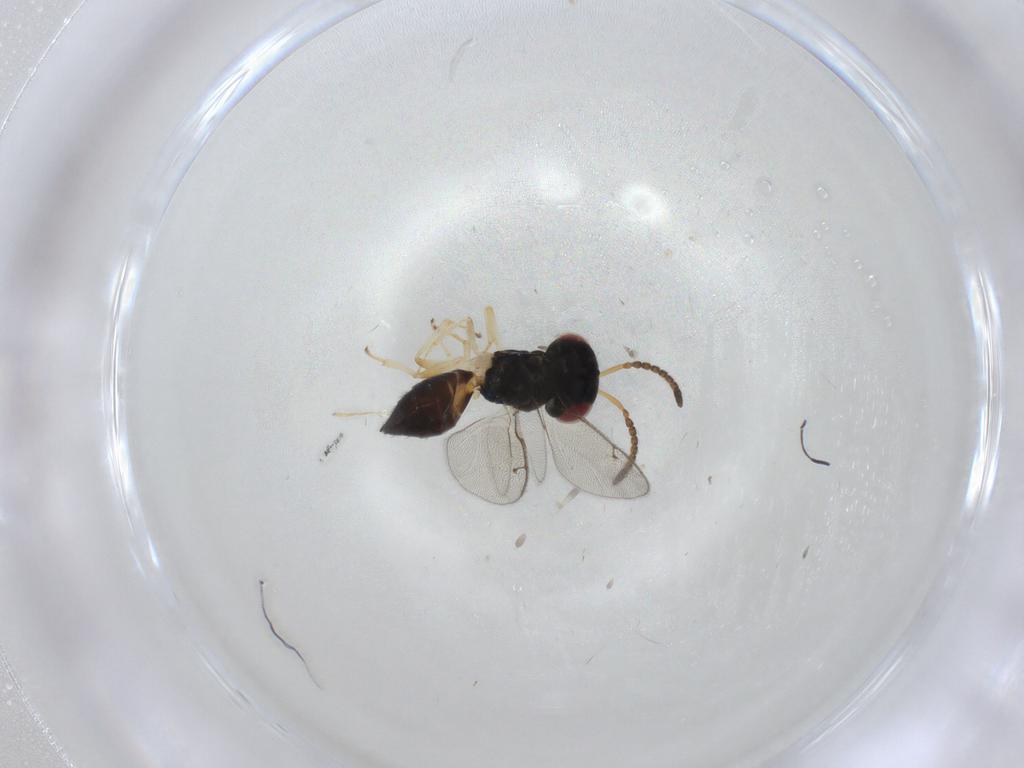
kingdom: Animalia
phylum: Arthropoda
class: Insecta
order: Hymenoptera
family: Pteromalidae
